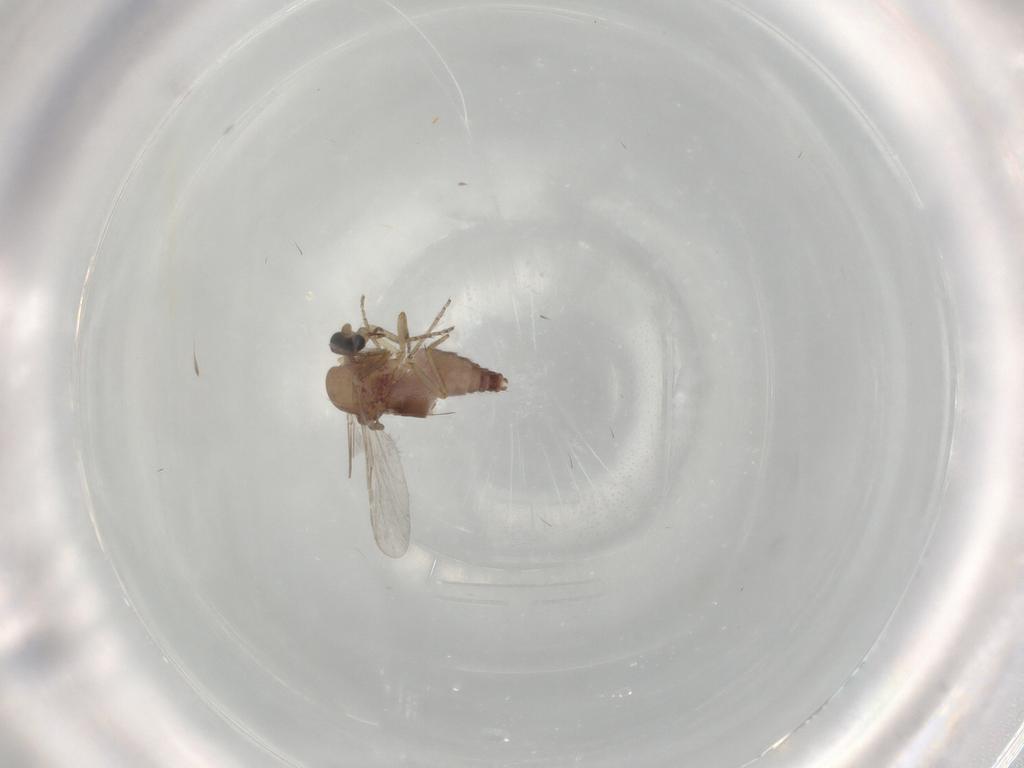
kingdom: Animalia
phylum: Arthropoda
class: Insecta
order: Diptera
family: Ceratopogonidae
